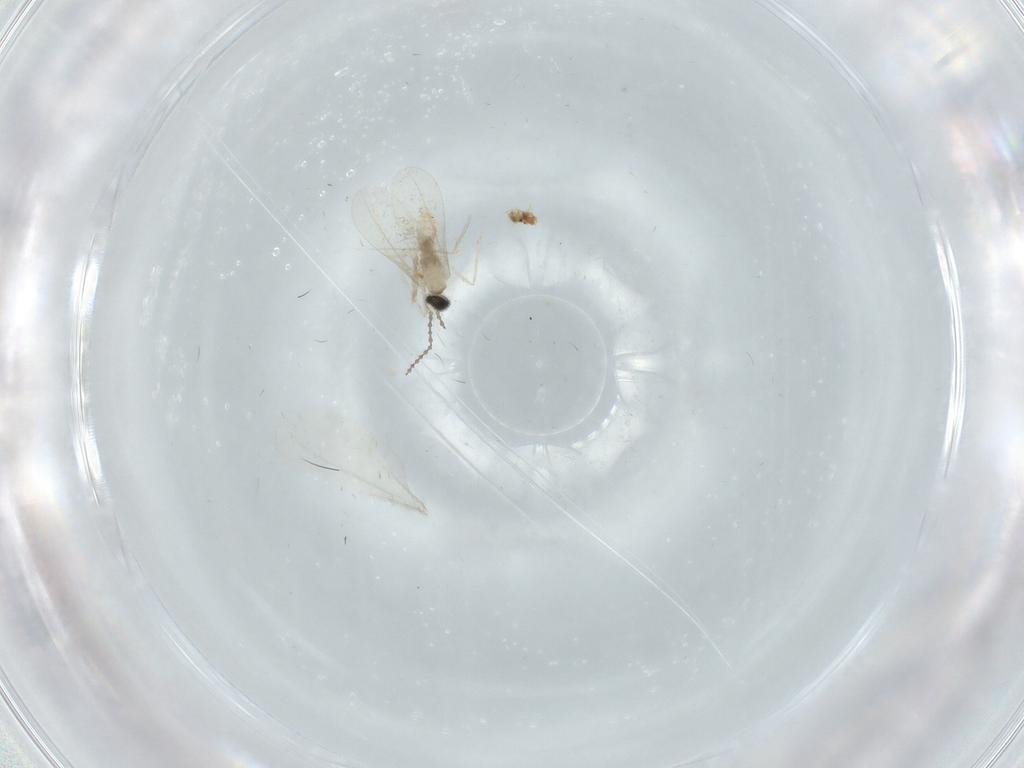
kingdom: Animalia
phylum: Arthropoda
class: Insecta
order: Diptera
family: Cecidomyiidae
